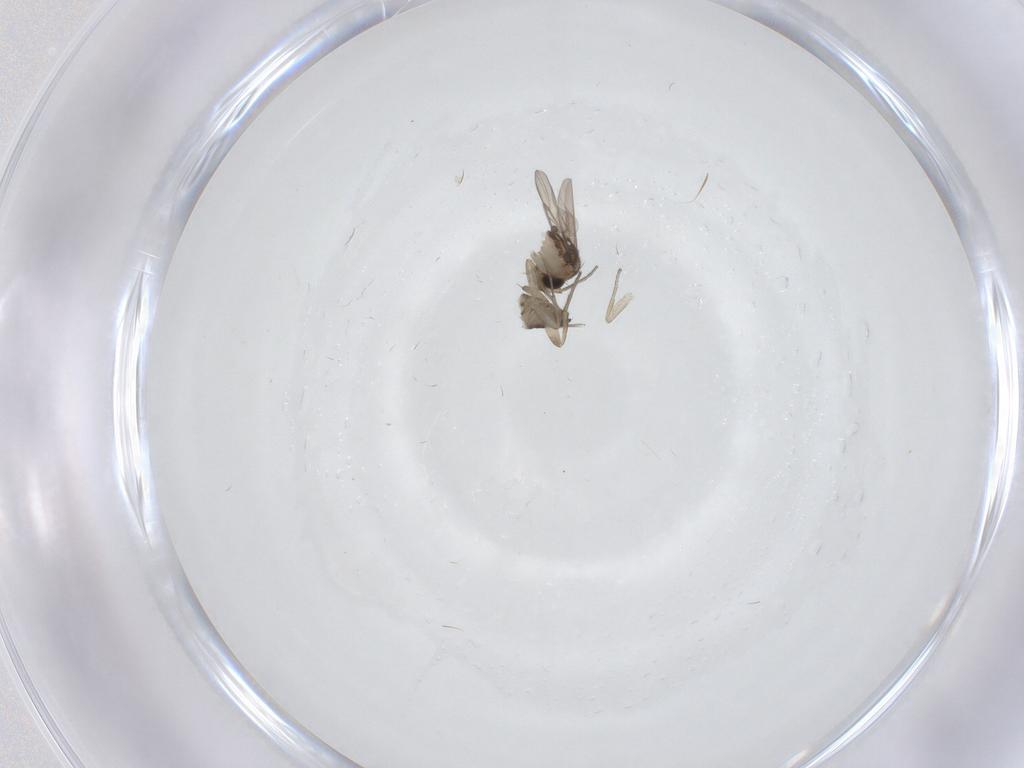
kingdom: Animalia
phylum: Arthropoda
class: Insecta
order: Diptera
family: Phoridae
